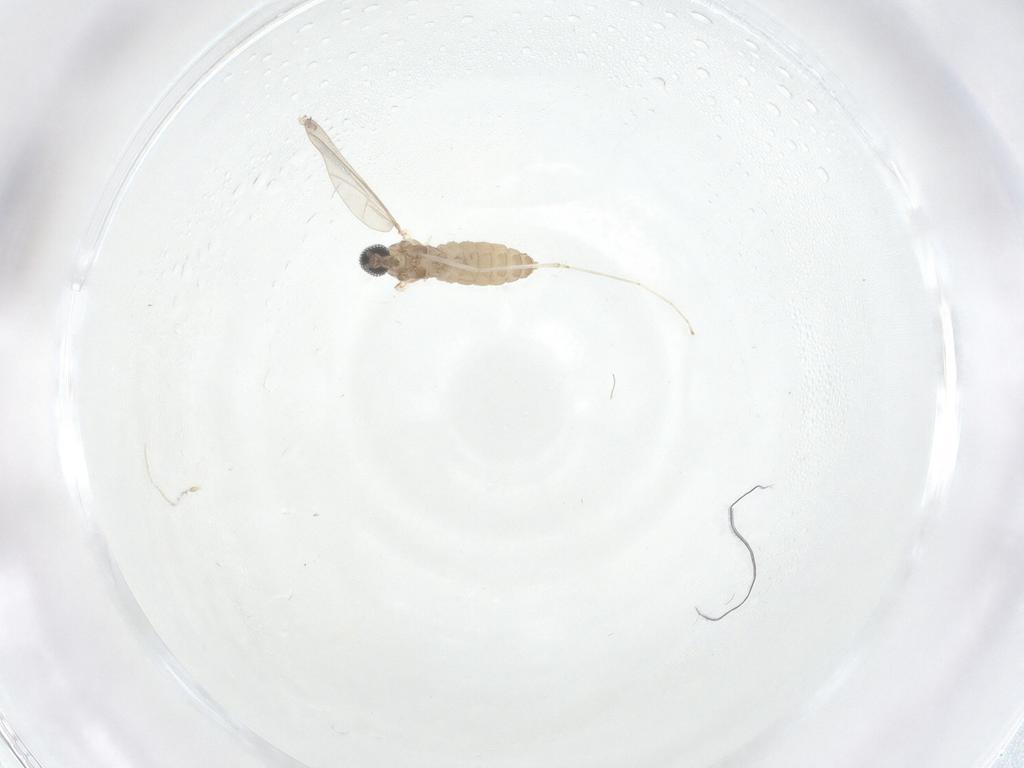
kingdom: Animalia
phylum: Arthropoda
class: Insecta
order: Diptera
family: Cecidomyiidae
